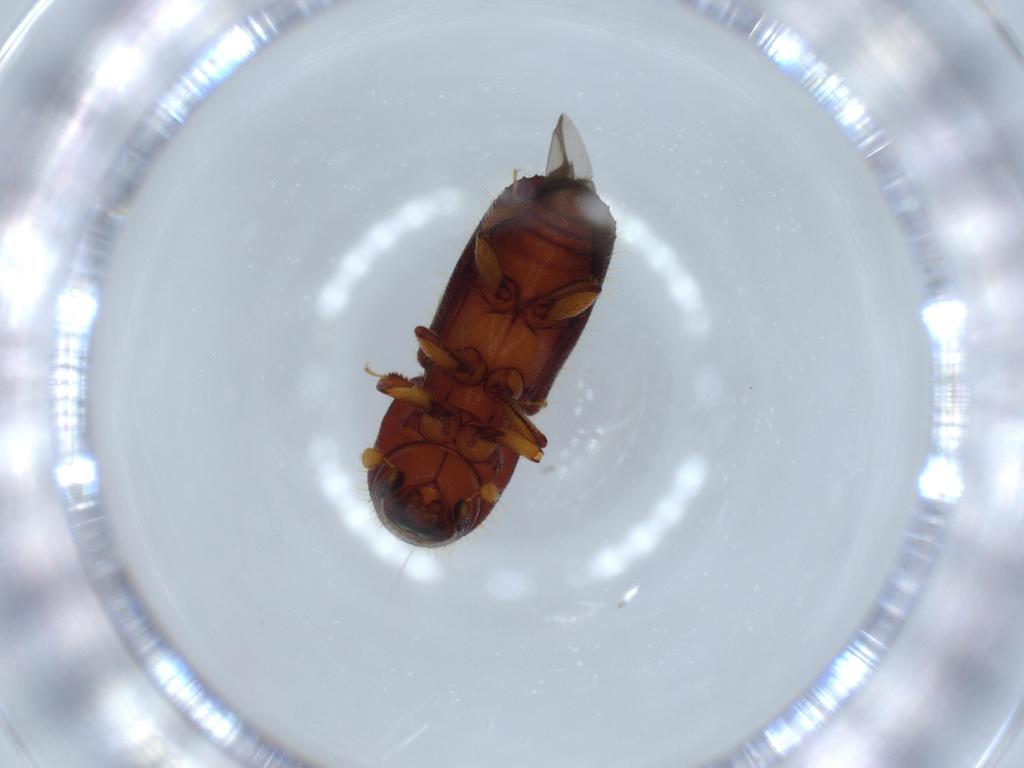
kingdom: Animalia
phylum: Arthropoda
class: Insecta
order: Coleoptera
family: Curculionidae
